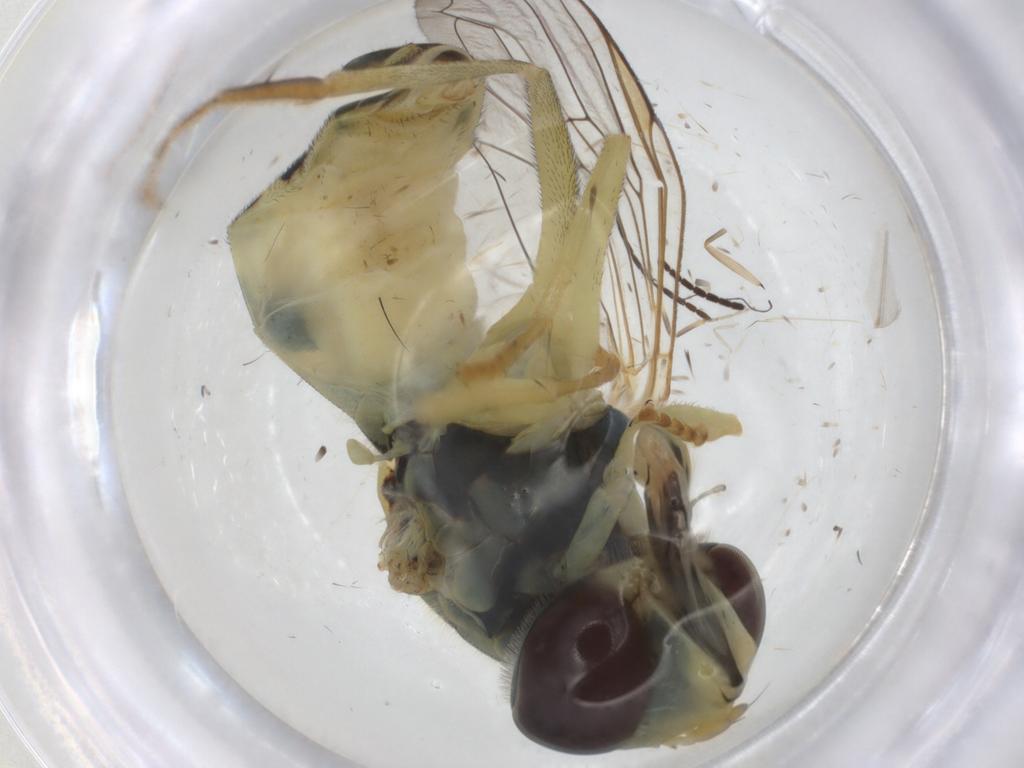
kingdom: Animalia
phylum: Arthropoda
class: Insecta
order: Diptera
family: Syrphidae
